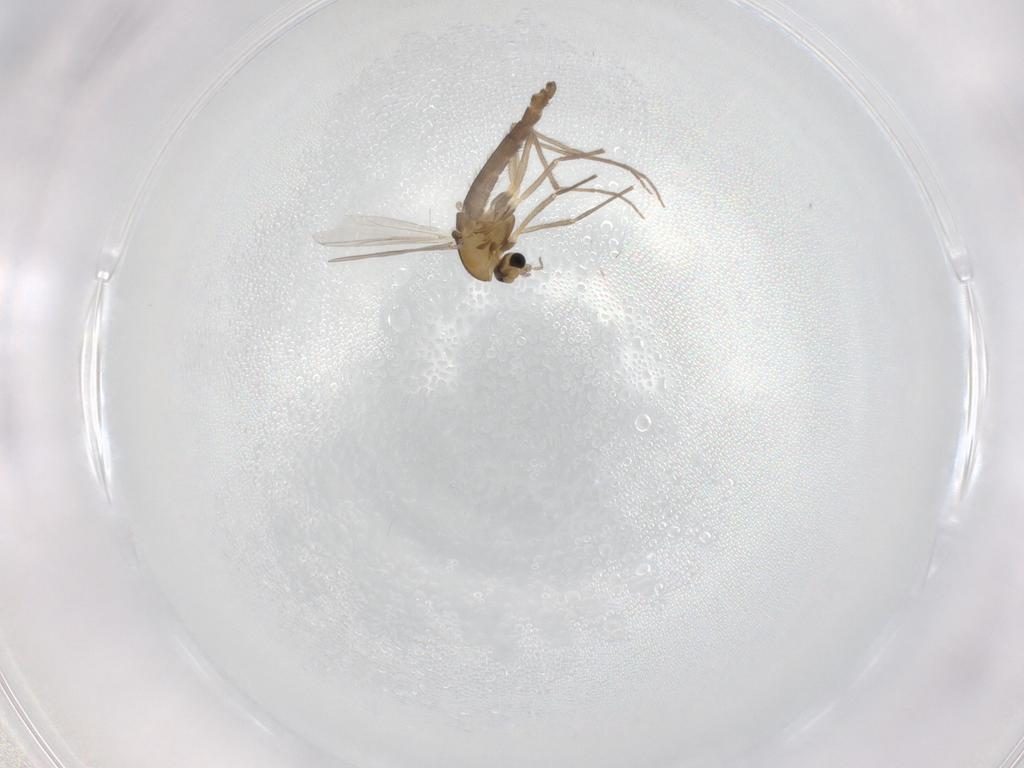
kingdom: Animalia
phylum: Arthropoda
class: Insecta
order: Diptera
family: Chironomidae
